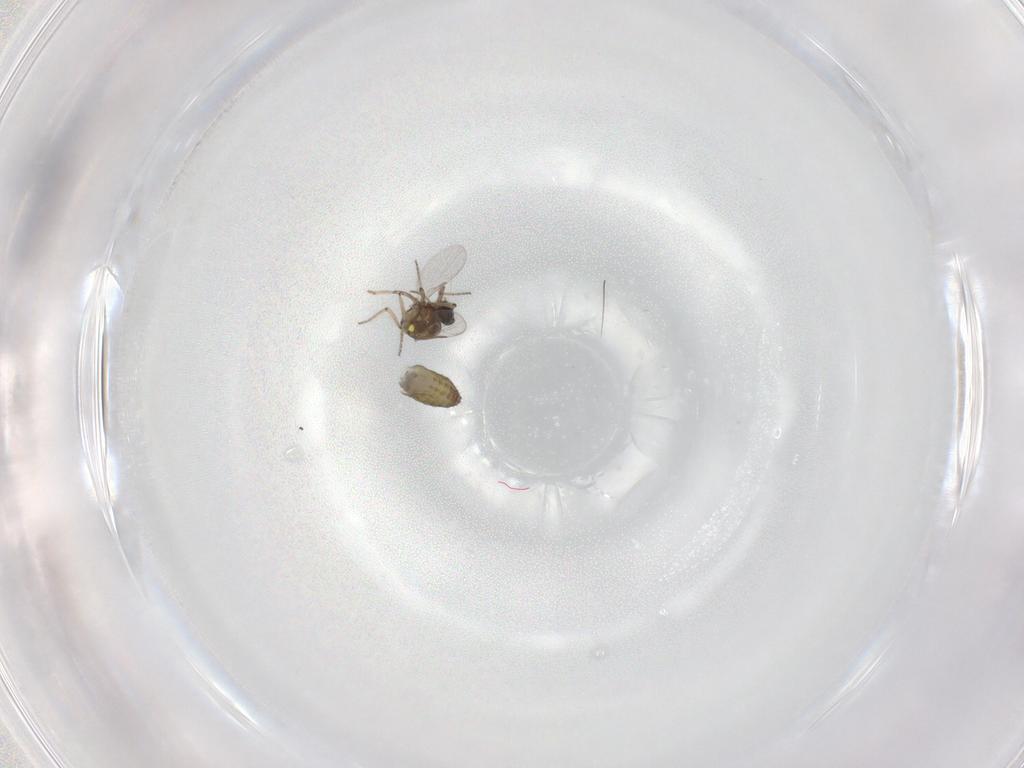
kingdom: Animalia
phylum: Arthropoda
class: Insecta
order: Diptera
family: Ceratopogonidae
